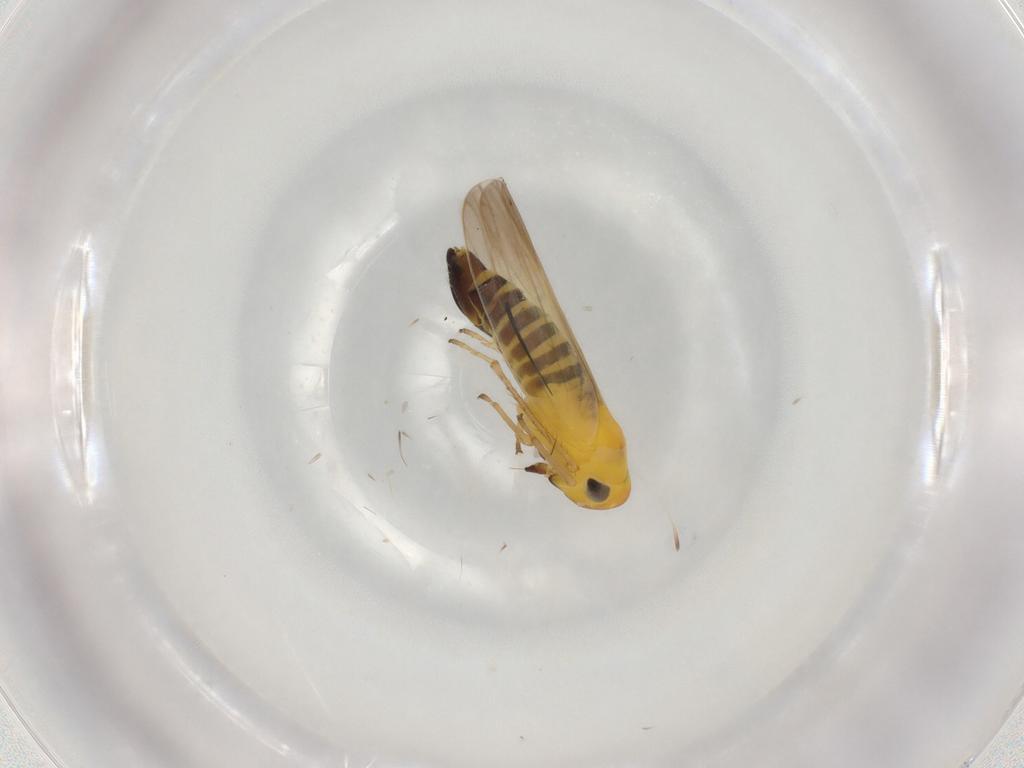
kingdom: Animalia
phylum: Arthropoda
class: Insecta
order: Hemiptera
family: Cicadellidae
